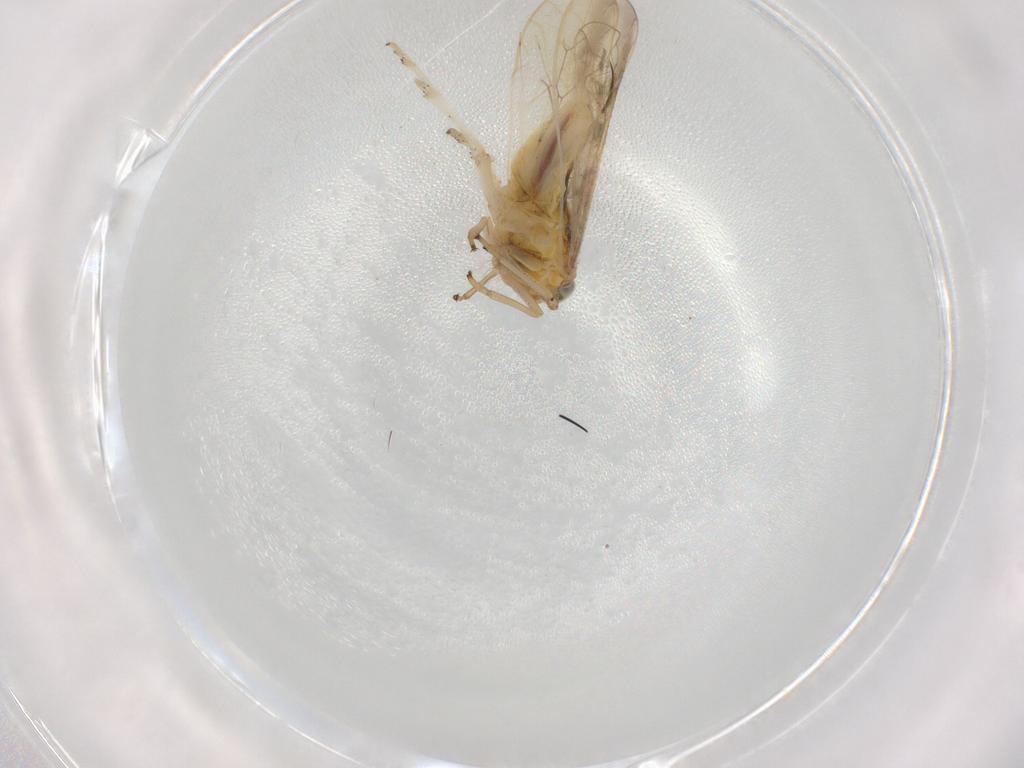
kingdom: Animalia
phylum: Arthropoda
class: Insecta
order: Diptera
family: Chironomidae
